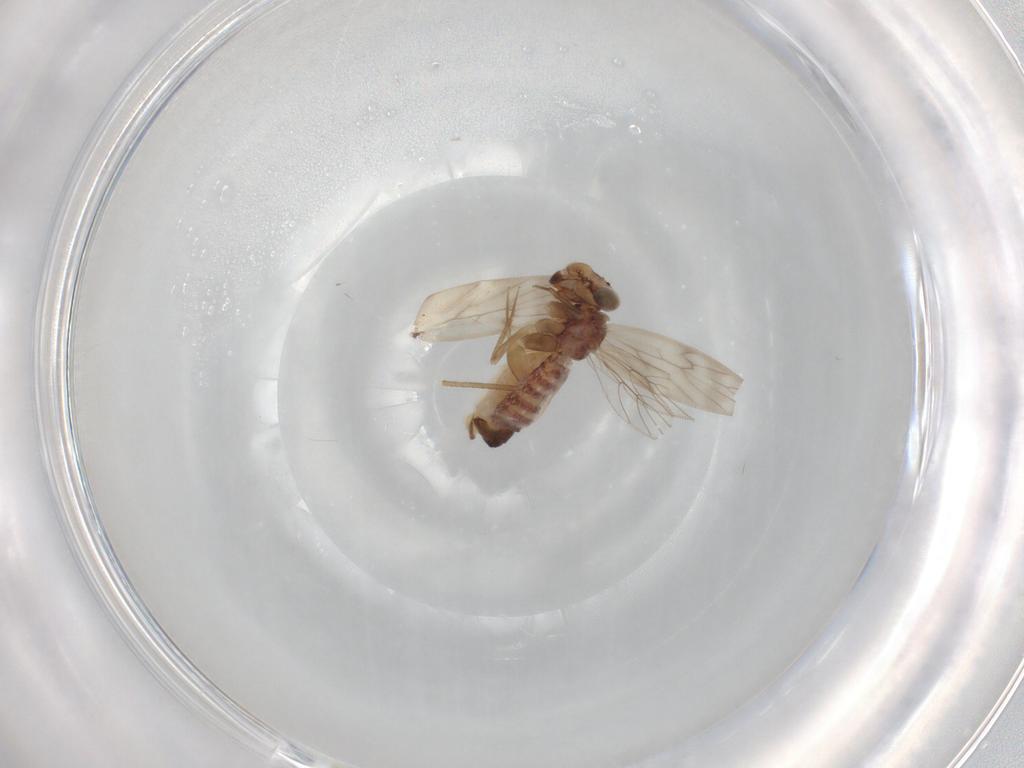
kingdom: Animalia
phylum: Arthropoda
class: Insecta
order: Psocodea
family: Lepidopsocidae
